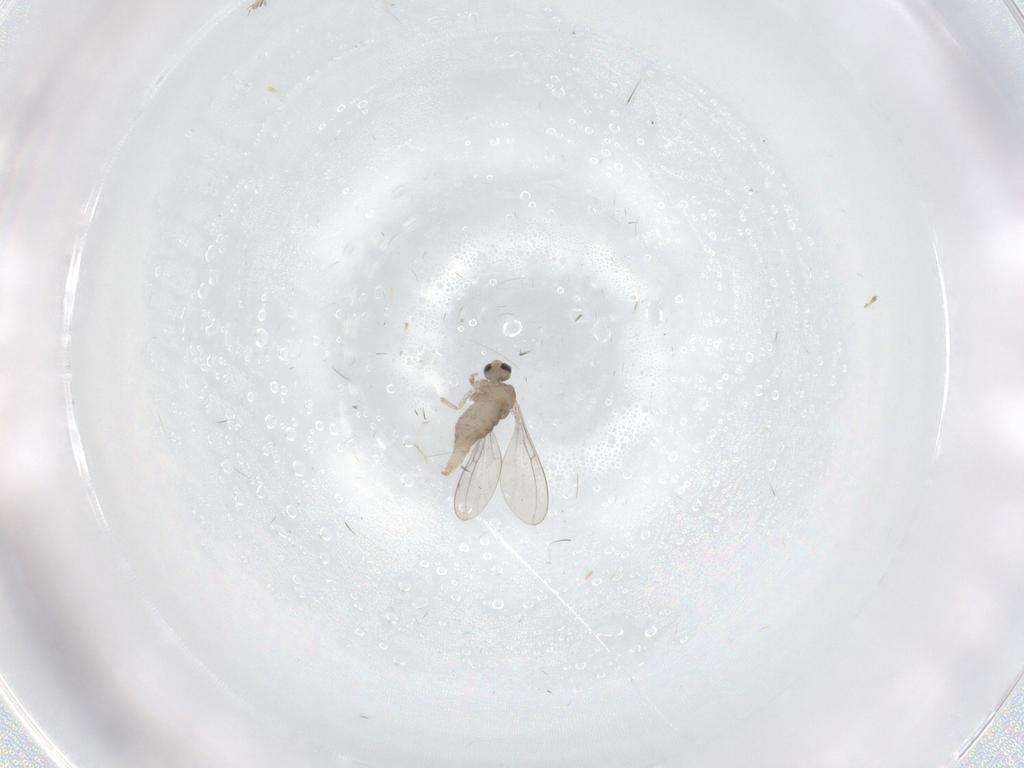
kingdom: Animalia
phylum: Arthropoda
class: Insecta
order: Diptera
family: Cecidomyiidae
